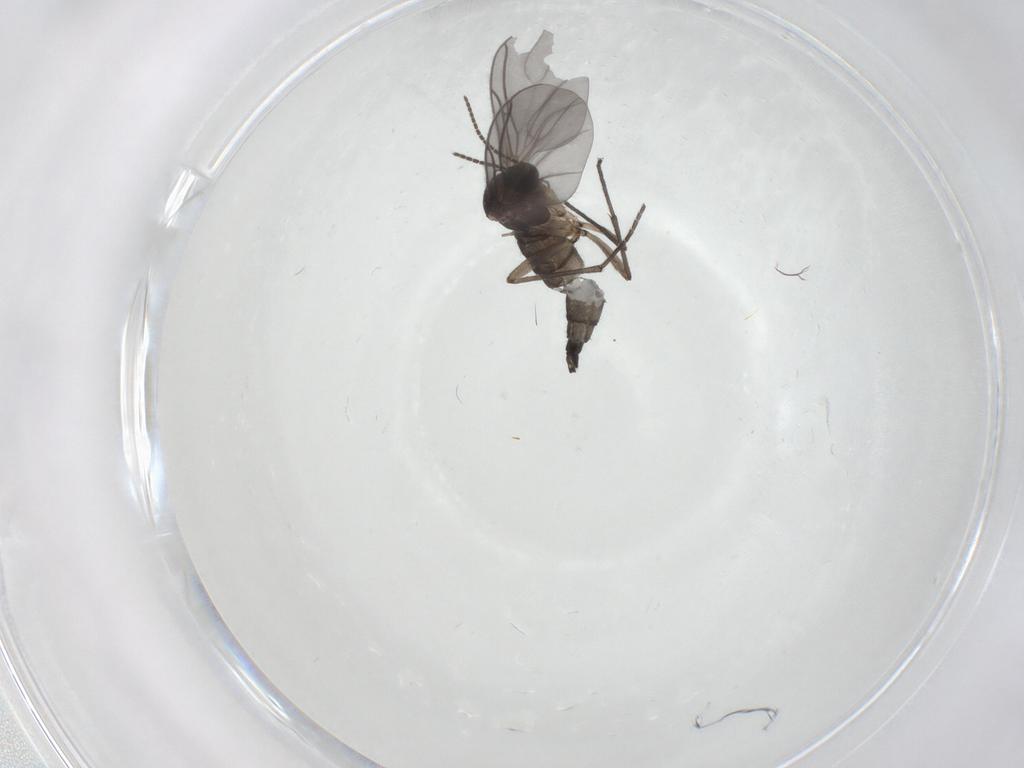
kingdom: Animalia
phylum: Arthropoda
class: Insecta
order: Diptera
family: Sciaridae
